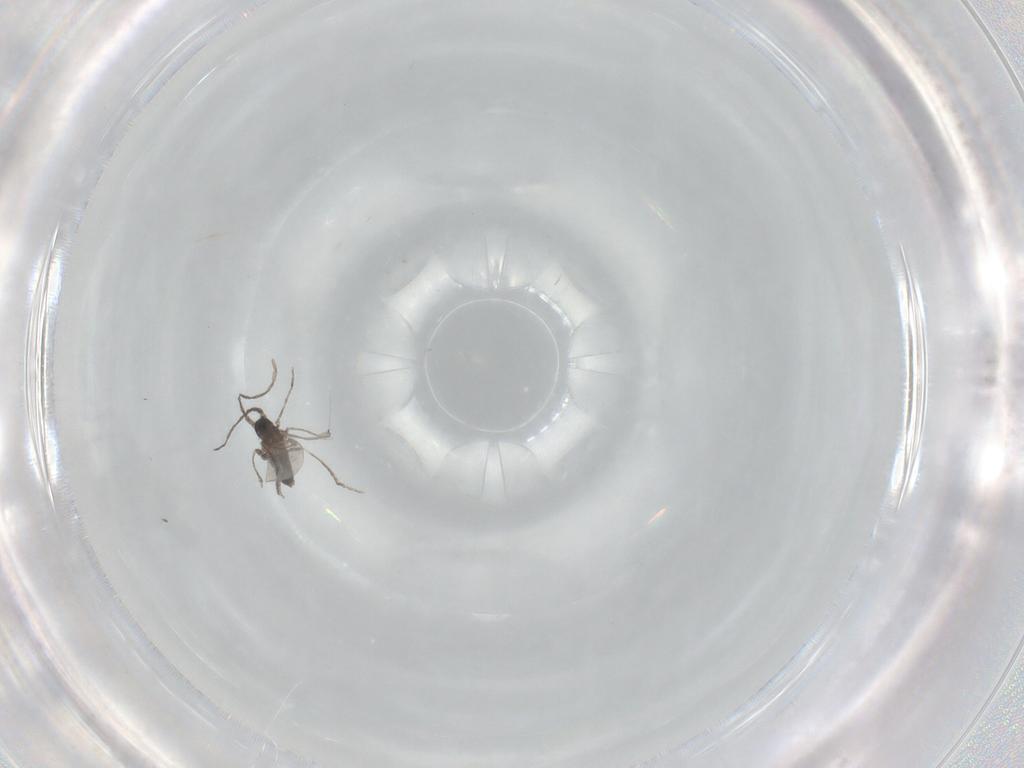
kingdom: Animalia
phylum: Arthropoda
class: Insecta
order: Diptera
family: Cecidomyiidae
